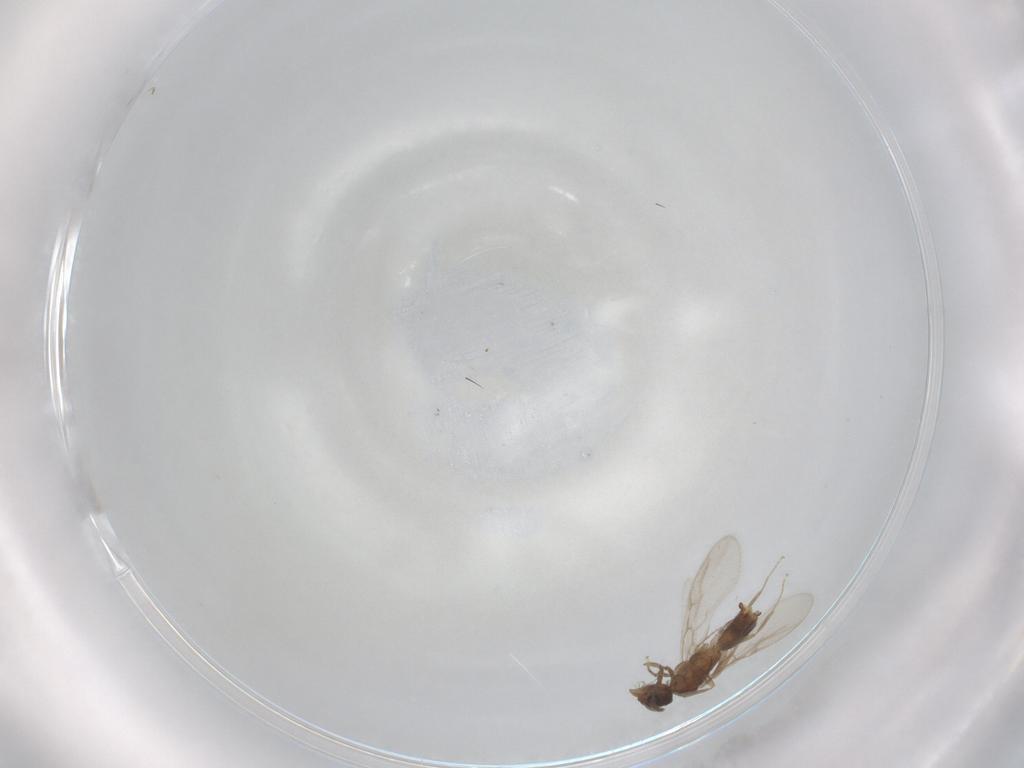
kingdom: Animalia
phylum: Arthropoda
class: Insecta
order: Hymenoptera
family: Formicidae
